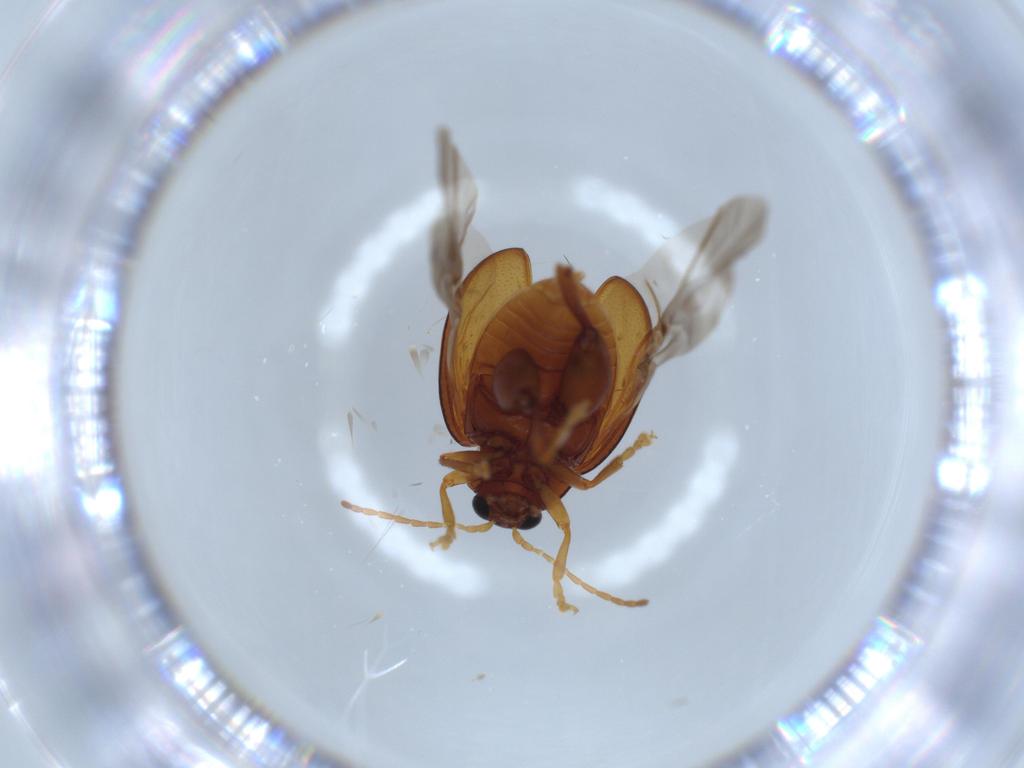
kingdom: Animalia
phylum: Arthropoda
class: Insecta
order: Coleoptera
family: Chrysomelidae
